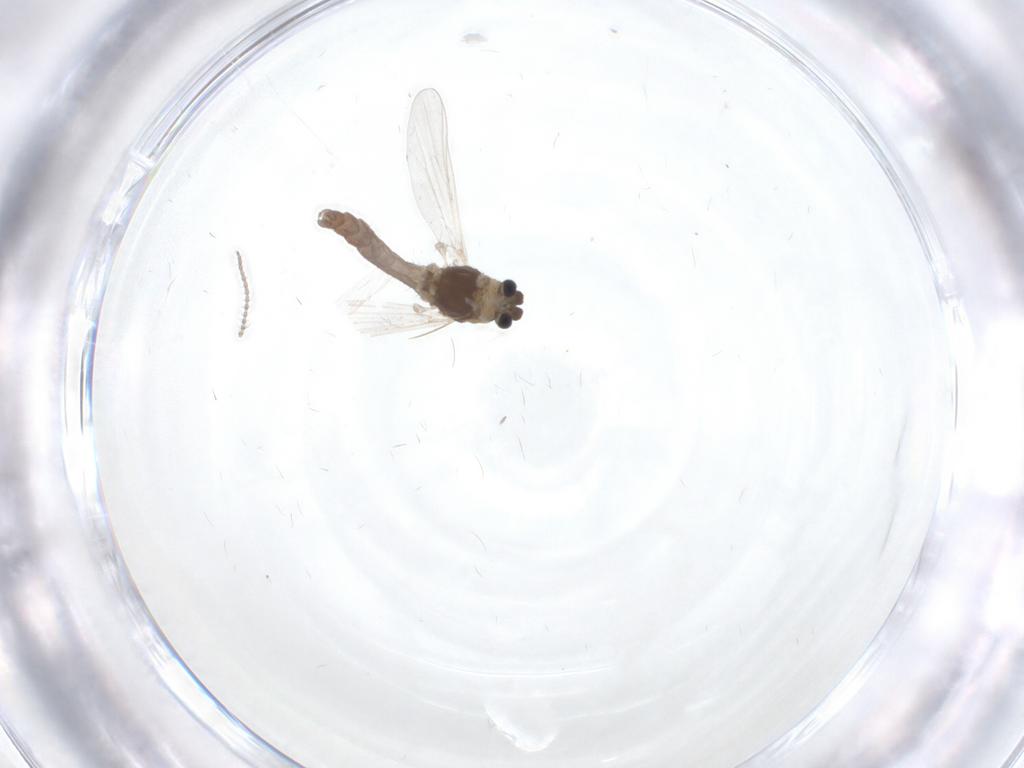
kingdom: Animalia
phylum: Arthropoda
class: Insecta
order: Diptera
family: Chironomidae
